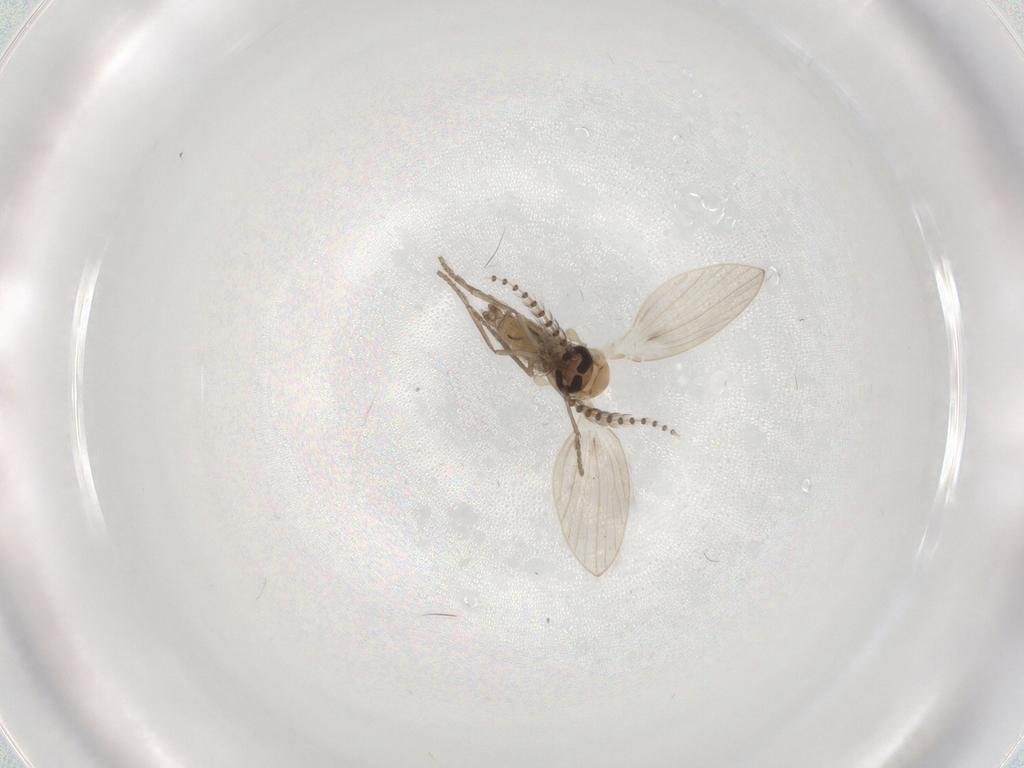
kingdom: Animalia
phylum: Arthropoda
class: Insecta
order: Diptera
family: Psychodidae
